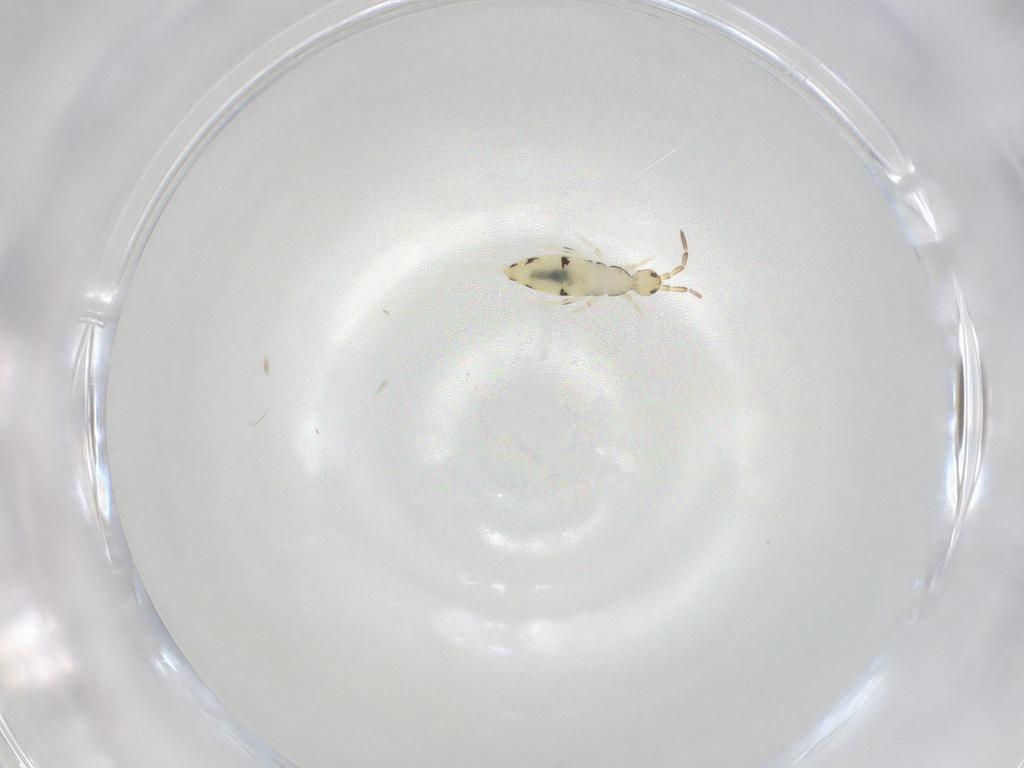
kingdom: Animalia
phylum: Arthropoda
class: Collembola
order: Entomobryomorpha
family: Entomobryidae
